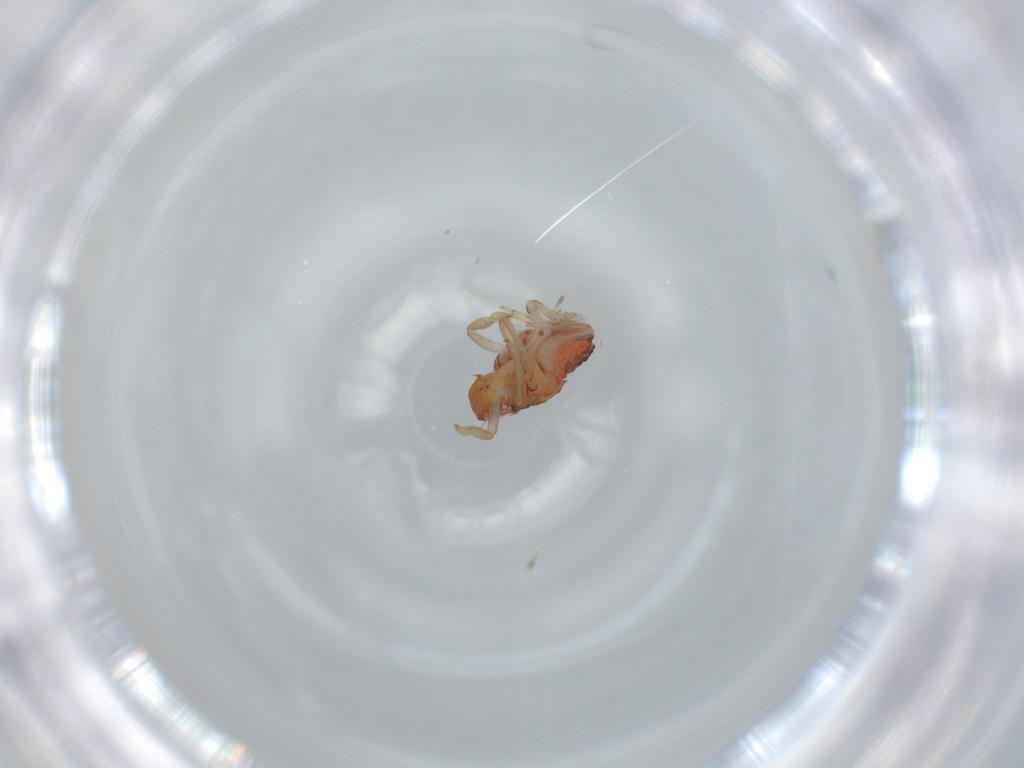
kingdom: Animalia
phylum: Arthropoda
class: Insecta
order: Hemiptera
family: Issidae
